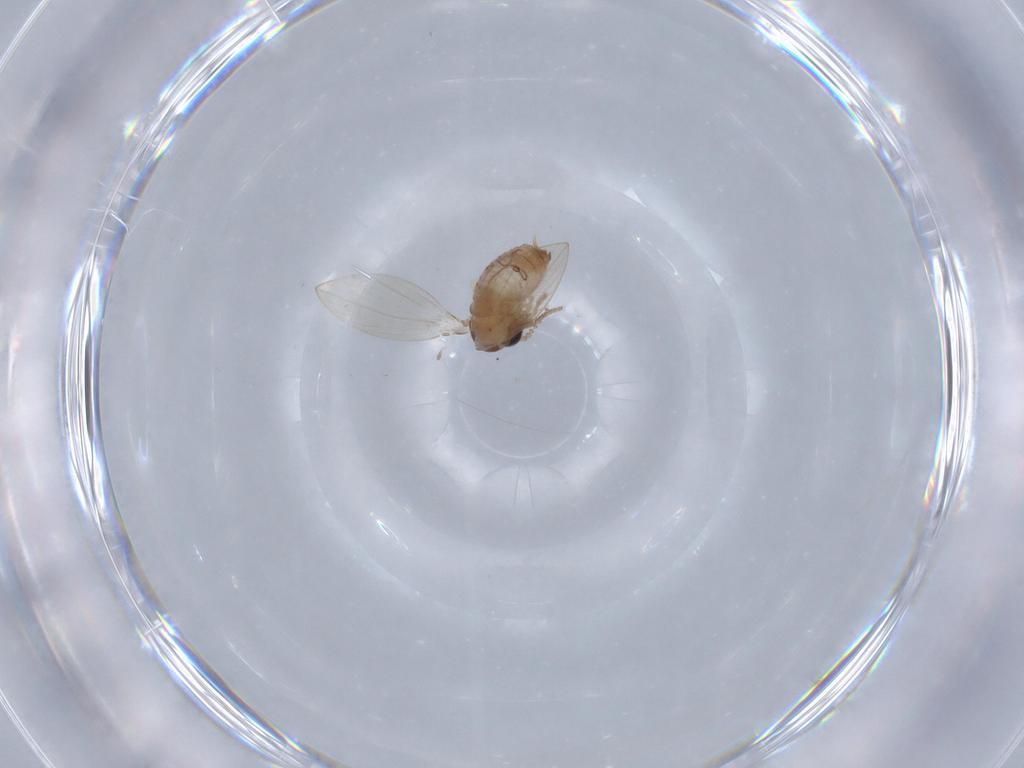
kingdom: Animalia
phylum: Arthropoda
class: Insecta
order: Diptera
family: Psychodidae
